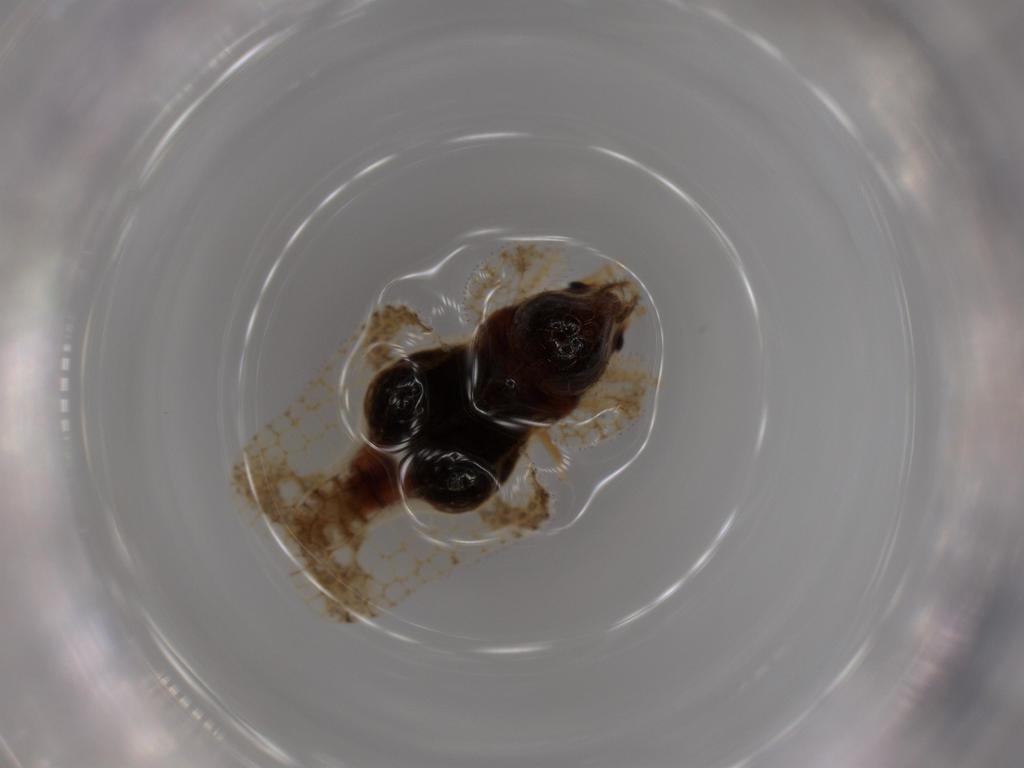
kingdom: Animalia
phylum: Arthropoda
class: Insecta
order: Hemiptera
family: Tingidae
